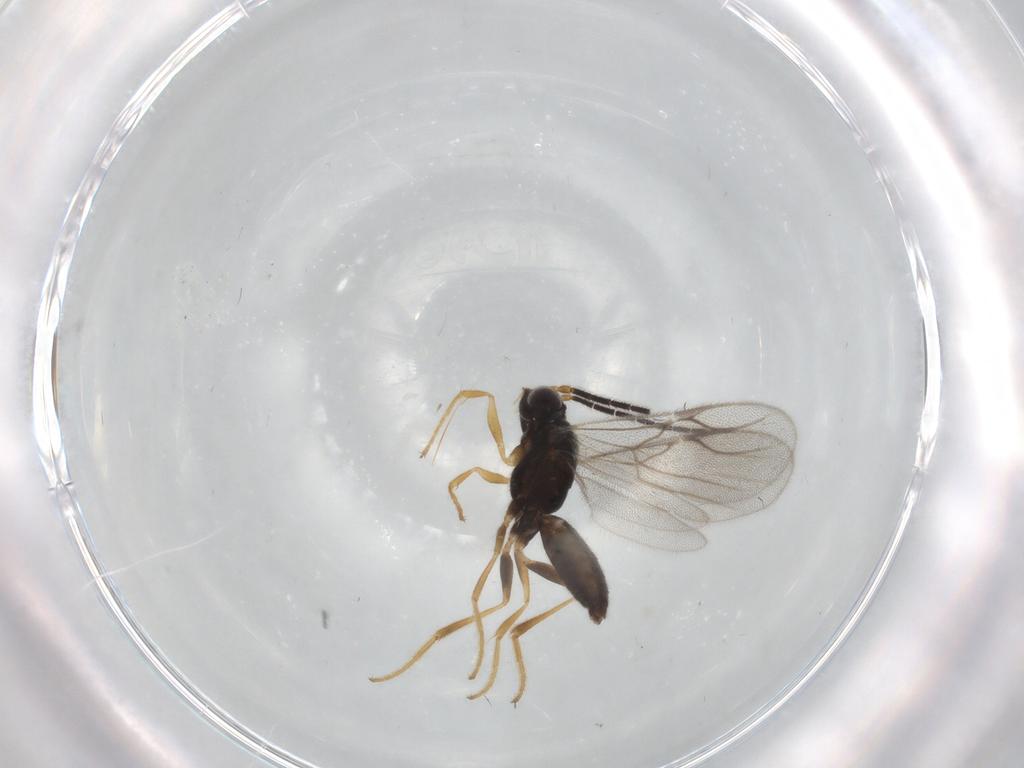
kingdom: Animalia
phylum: Arthropoda
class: Insecta
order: Hymenoptera
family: Dryinidae
